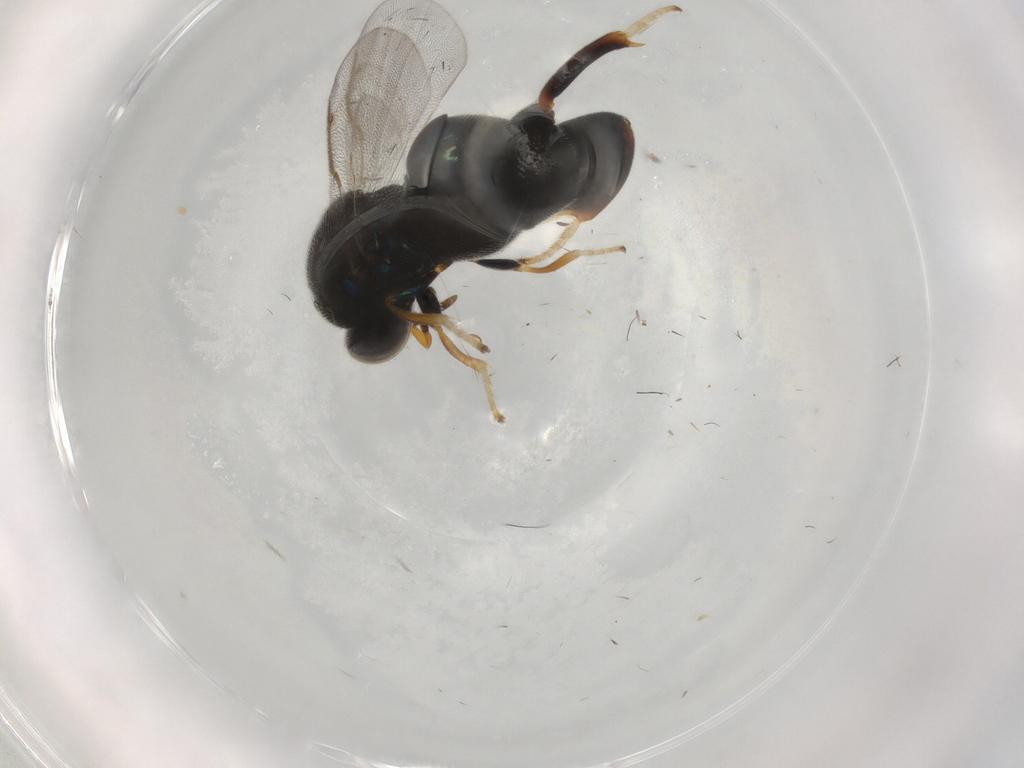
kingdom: Animalia
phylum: Arthropoda
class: Insecta
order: Hymenoptera
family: Torymidae
